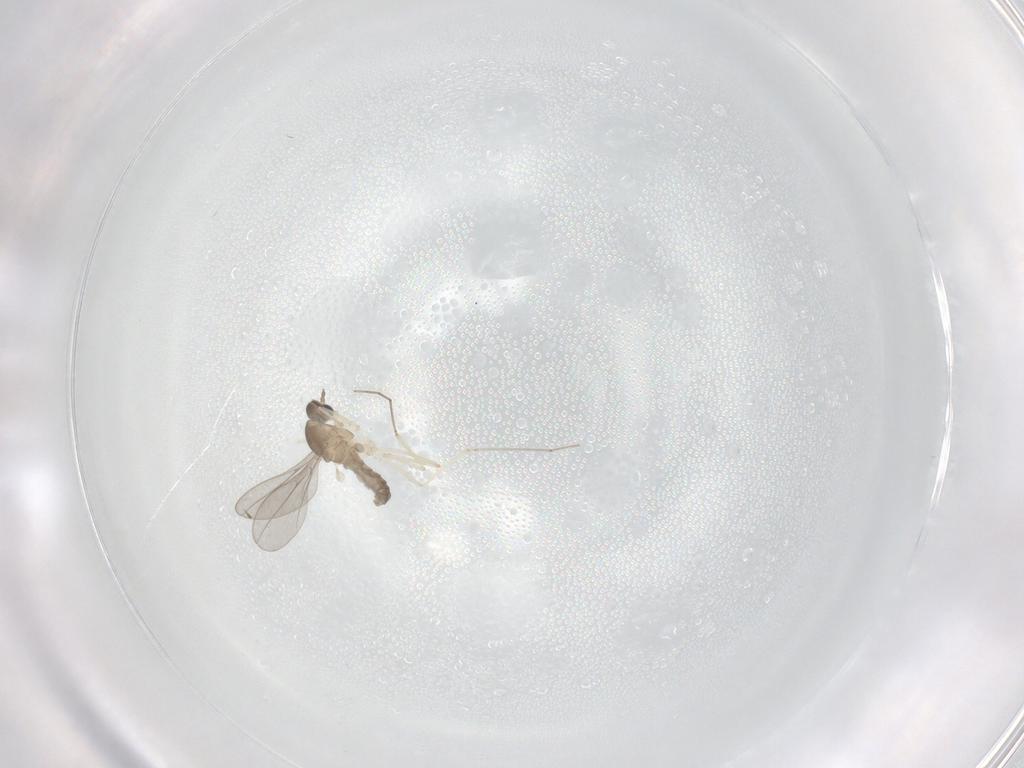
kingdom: Animalia
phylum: Arthropoda
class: Insecta
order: Diptera
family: Cecidomyiidae
